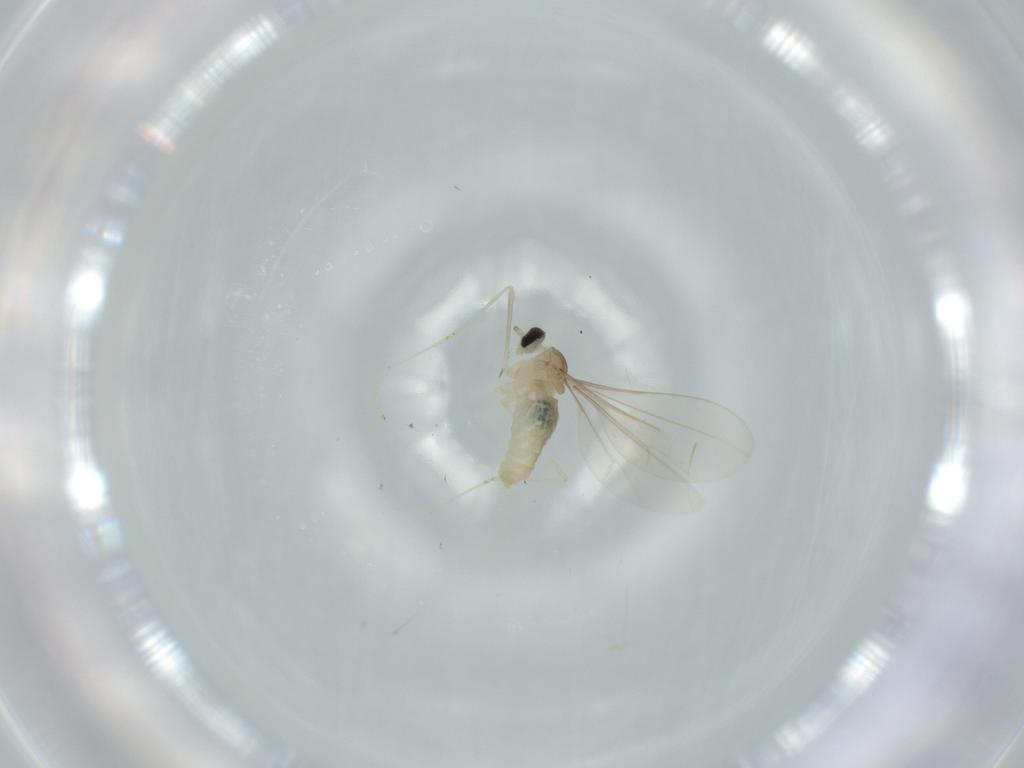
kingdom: Animalia
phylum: Arthropoda
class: Insecta
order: Diptera
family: Cecidomyiidae
